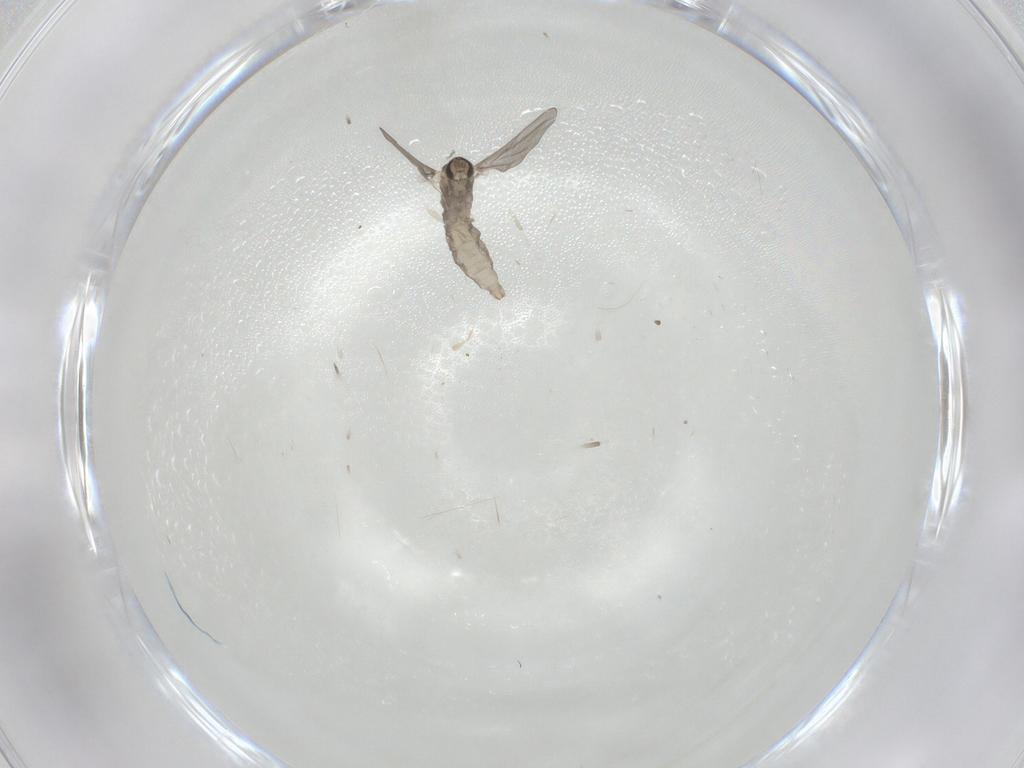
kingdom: Animalia
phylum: Arthropoda
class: Insecta
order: Diptera
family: Cecidomyiidae
